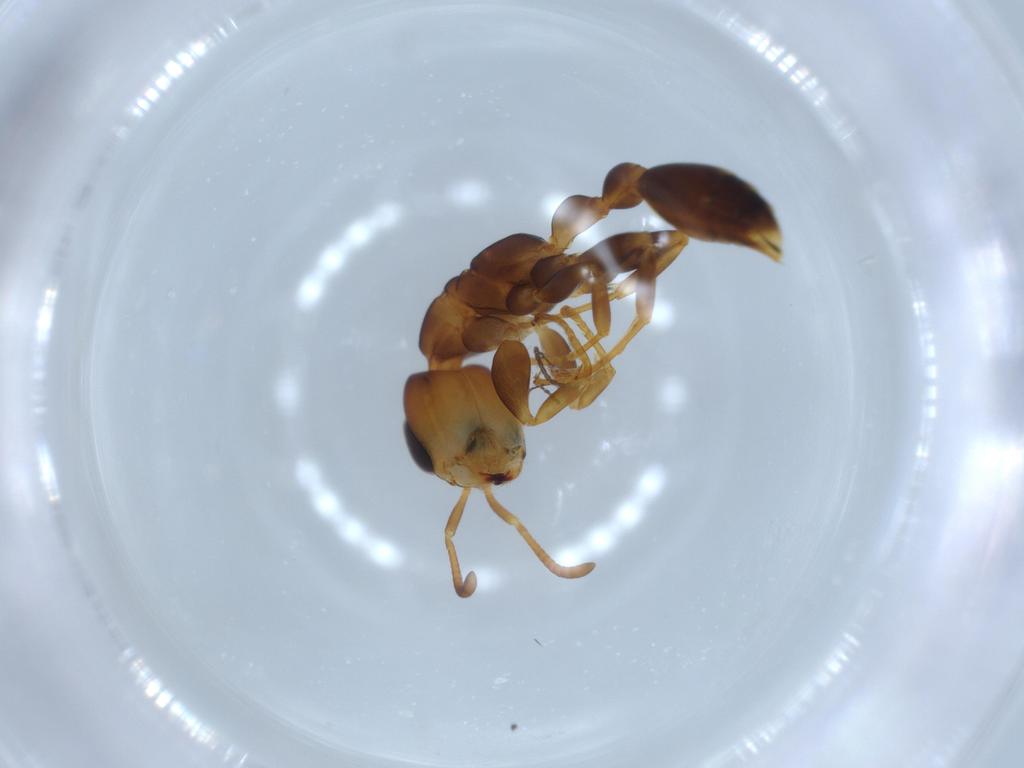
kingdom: Animalia
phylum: Arthropoda
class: Insecta
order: Hymenoptera
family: Formicidae
